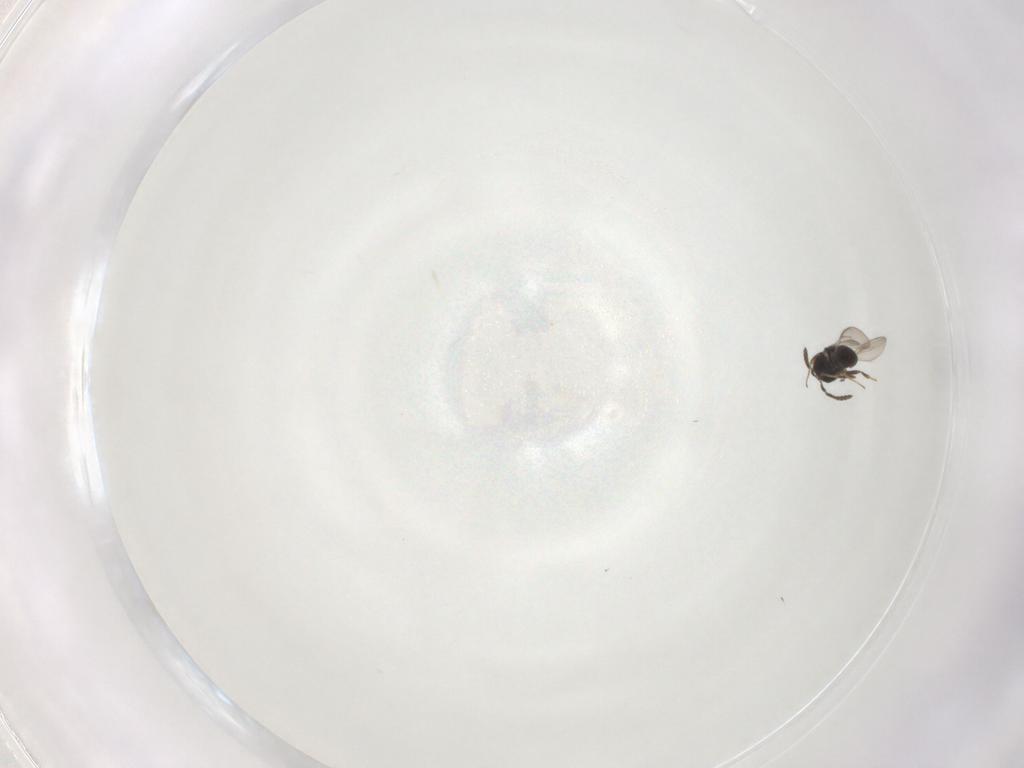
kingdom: Animalia
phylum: Arthropoda
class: Insecta
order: Hymenoptera
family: Scelionidae
